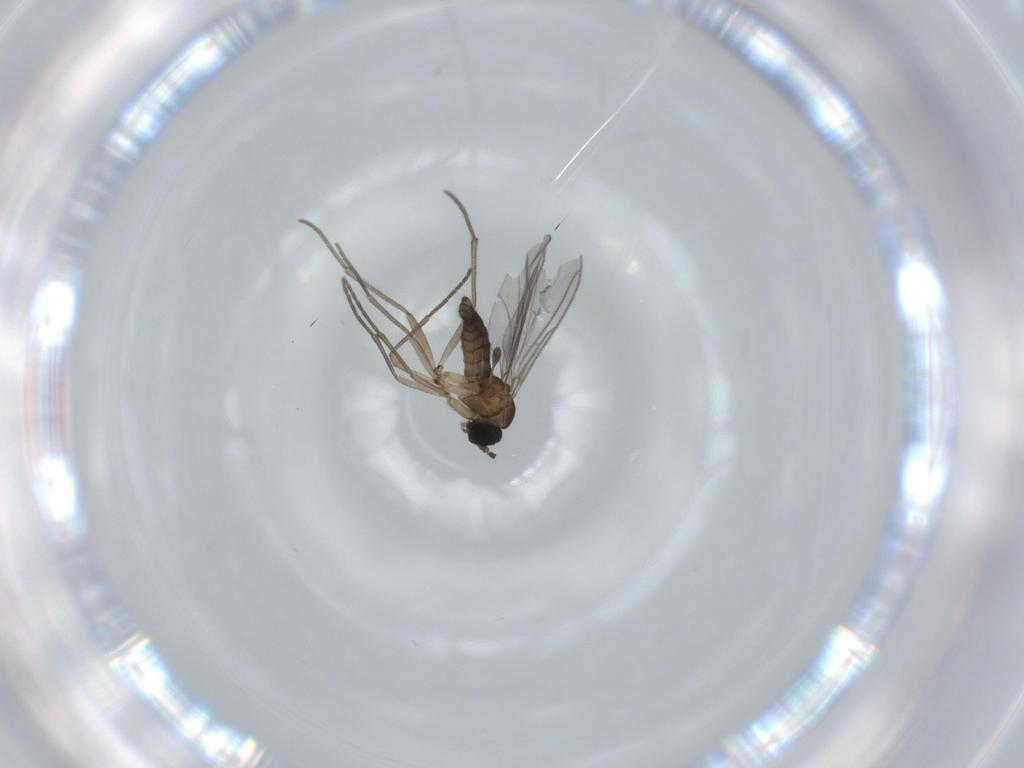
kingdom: Animalia
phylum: Arthropoda
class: Insecta
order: Diptera
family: Sciaridae
